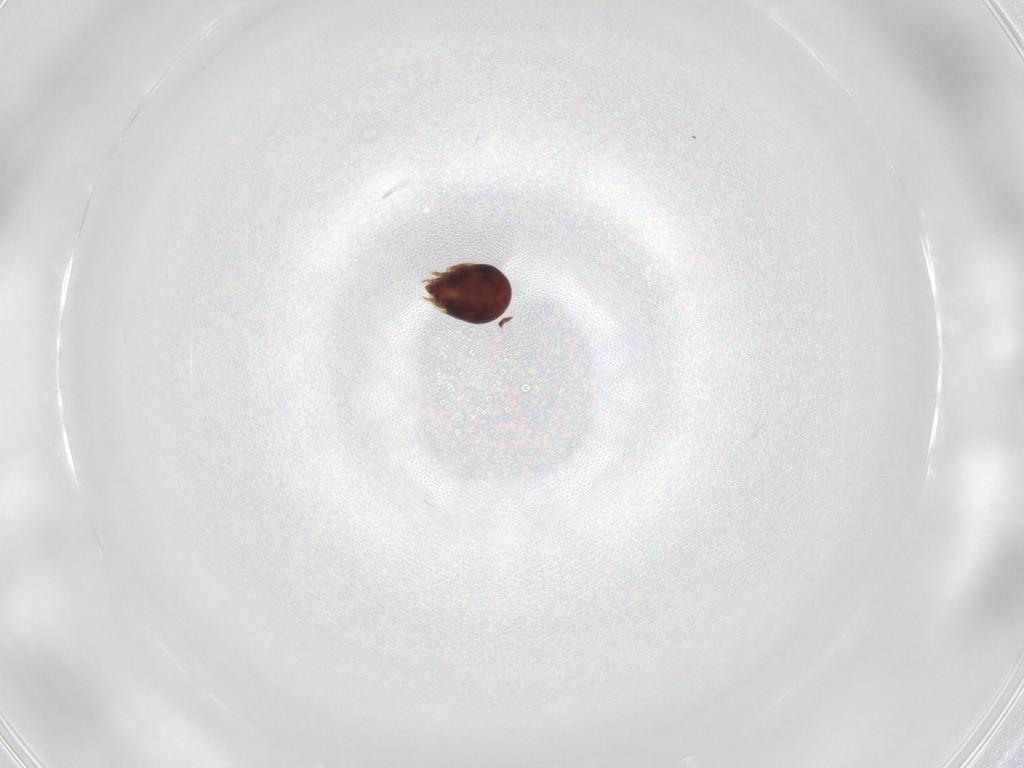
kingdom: Animalia
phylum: Arthropoda
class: Arachnida
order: Sarcoptiformes
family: Ceratozetidae
